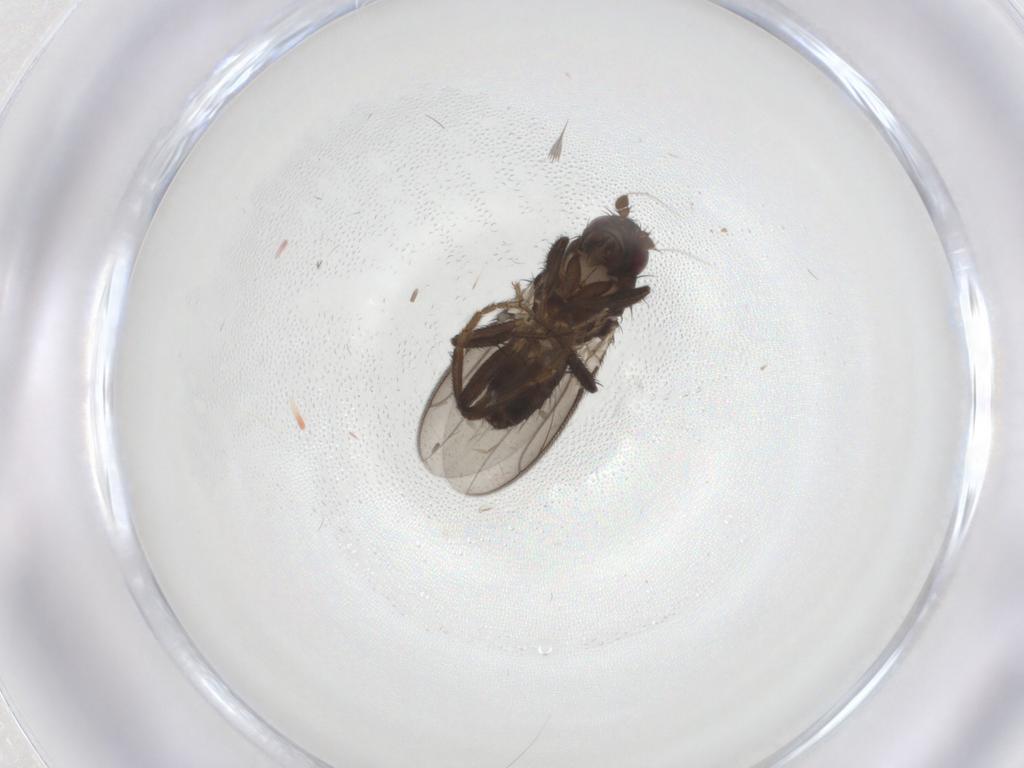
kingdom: Animalia
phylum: Arthropoda
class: Insecta
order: Diptera
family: Sphaeroceridae
